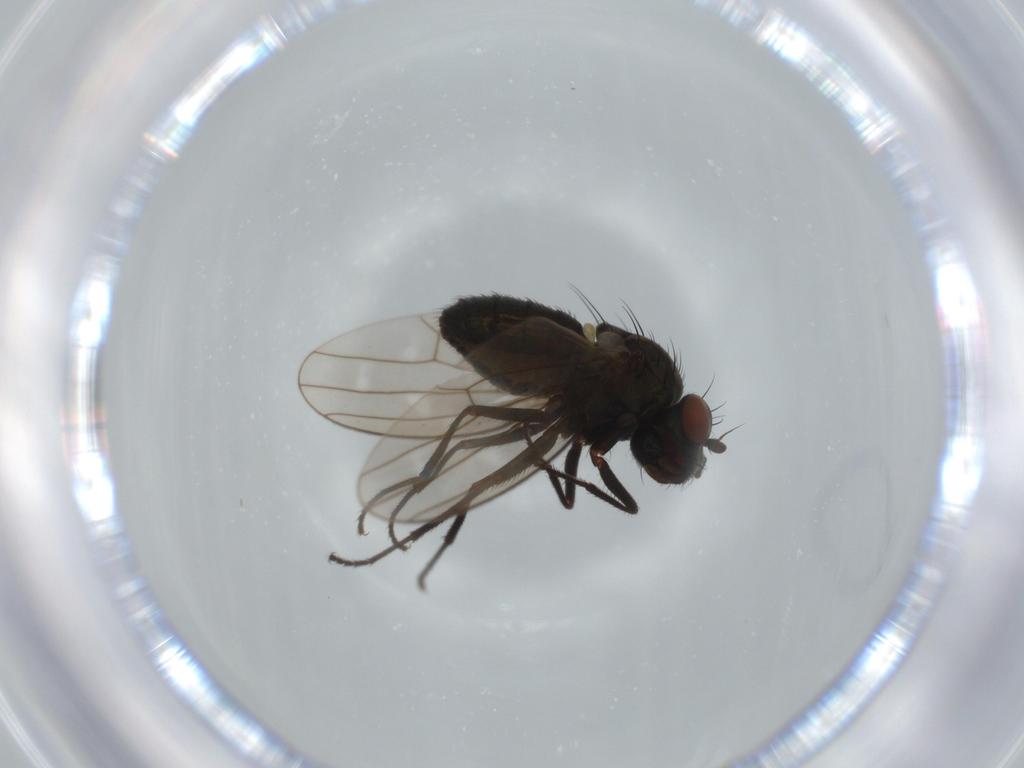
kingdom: Animalia
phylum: Arthropoda
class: Insecta
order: Diptera
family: Ephydridae
